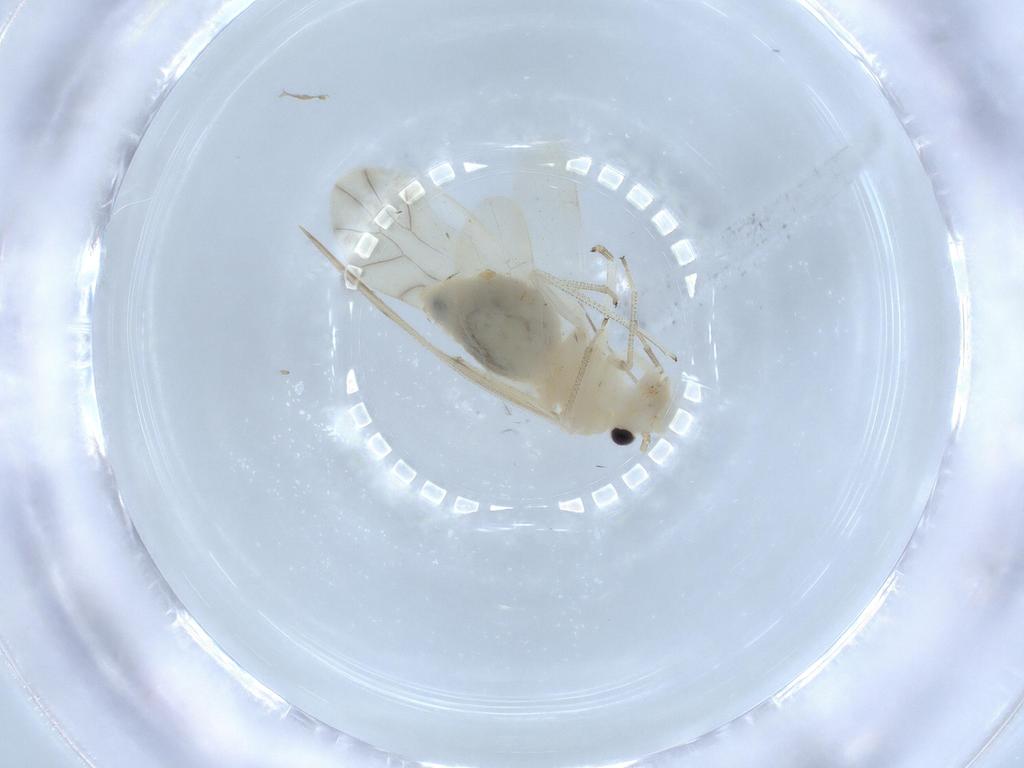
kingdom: Animalia
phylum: Arthropoda
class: Insecta
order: Psocodea
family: Caeciliusidae
